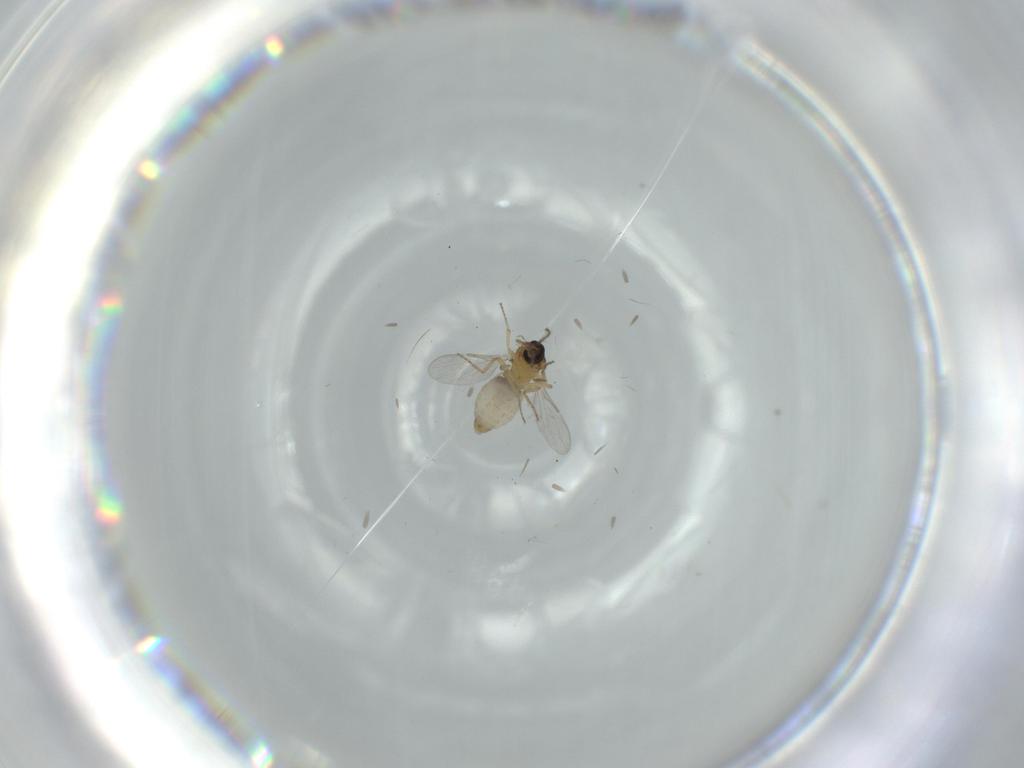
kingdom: Animalia
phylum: Arthropoda
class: Insecta
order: Diptera
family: Ceratopogonidae
